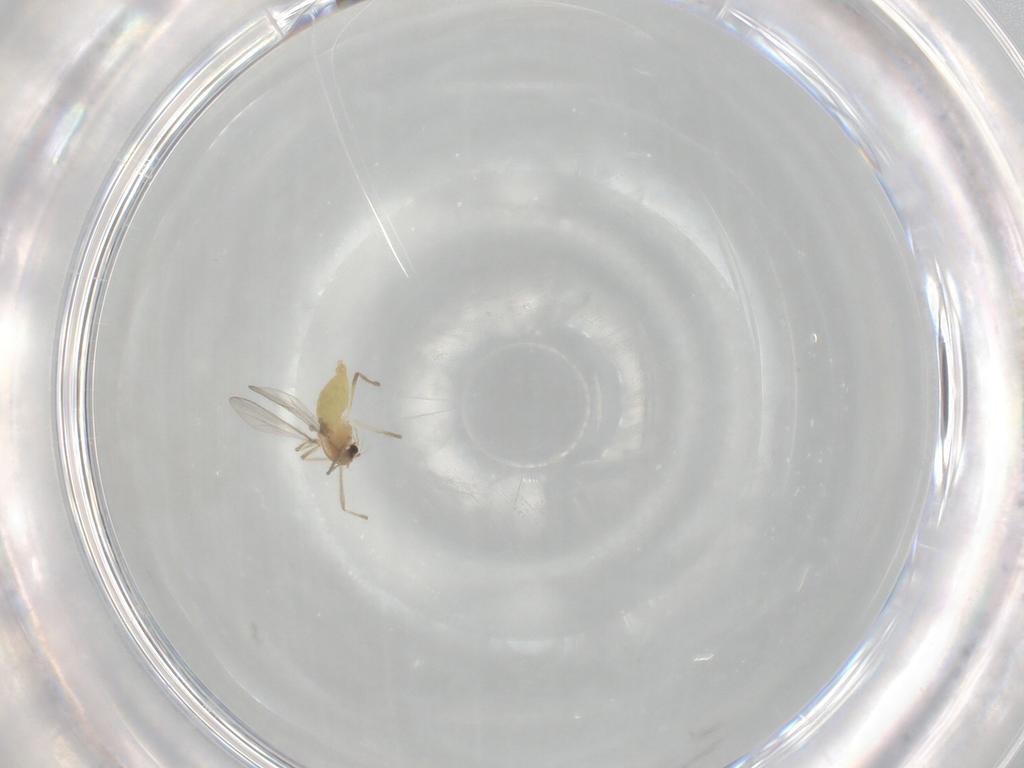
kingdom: Animalia
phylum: Arthropoda
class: Insecta
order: Diptera
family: Chironomidae
